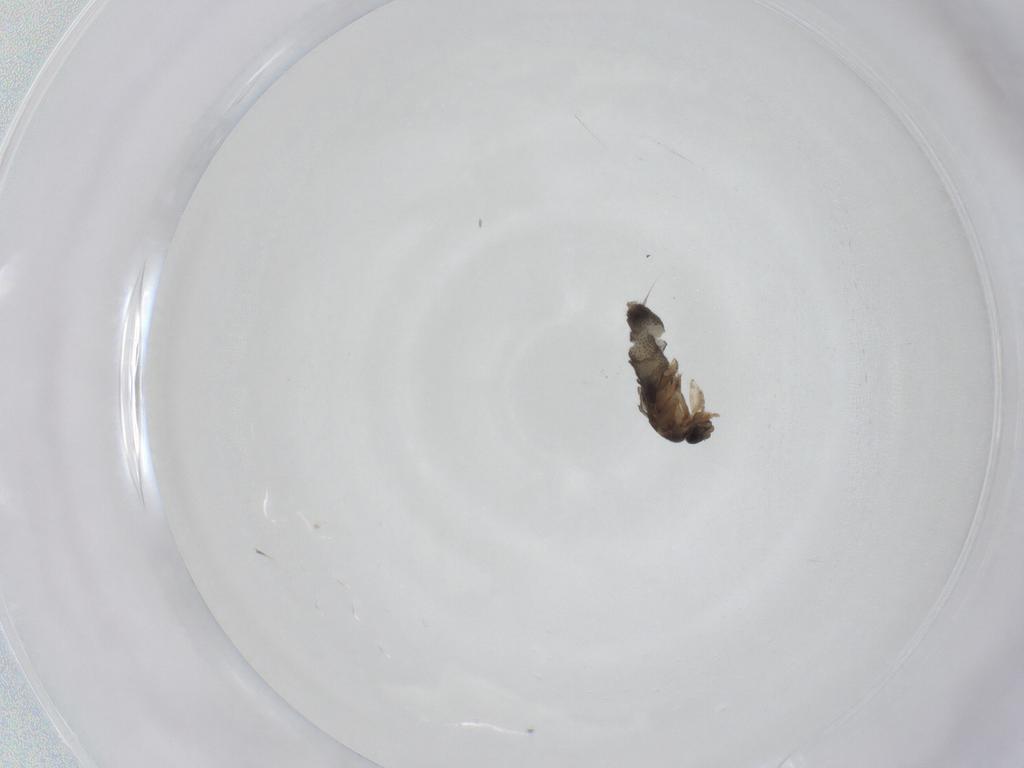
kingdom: Animalia
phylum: Arthropoda
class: Insecta
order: Diptera
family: Phoridae
